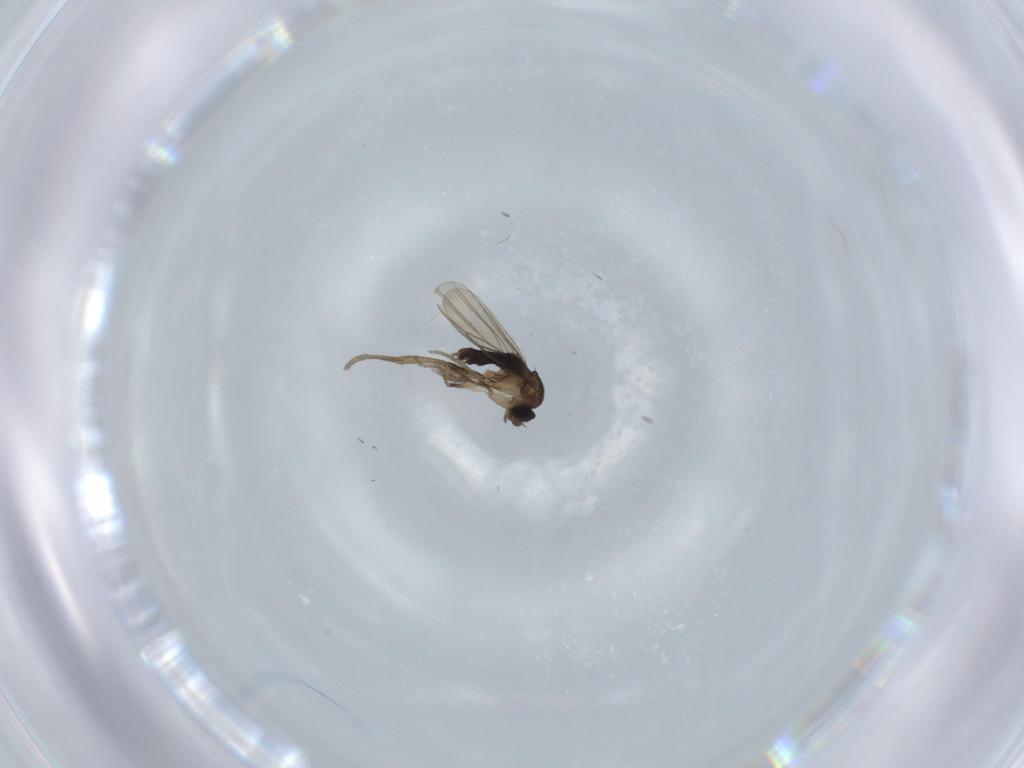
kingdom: Animalia
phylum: Arthropoda
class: Insecta
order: Diptera
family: Phoridae
